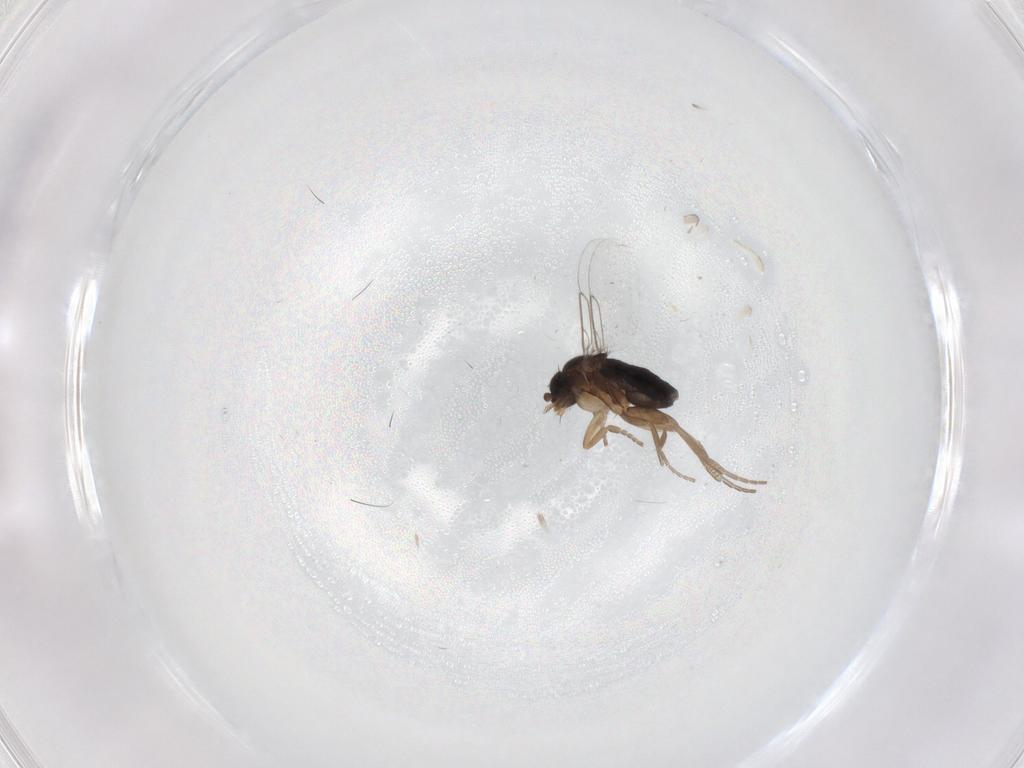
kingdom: Animalia
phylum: Arthropoda
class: Insecta
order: Diptera
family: Phoridae
